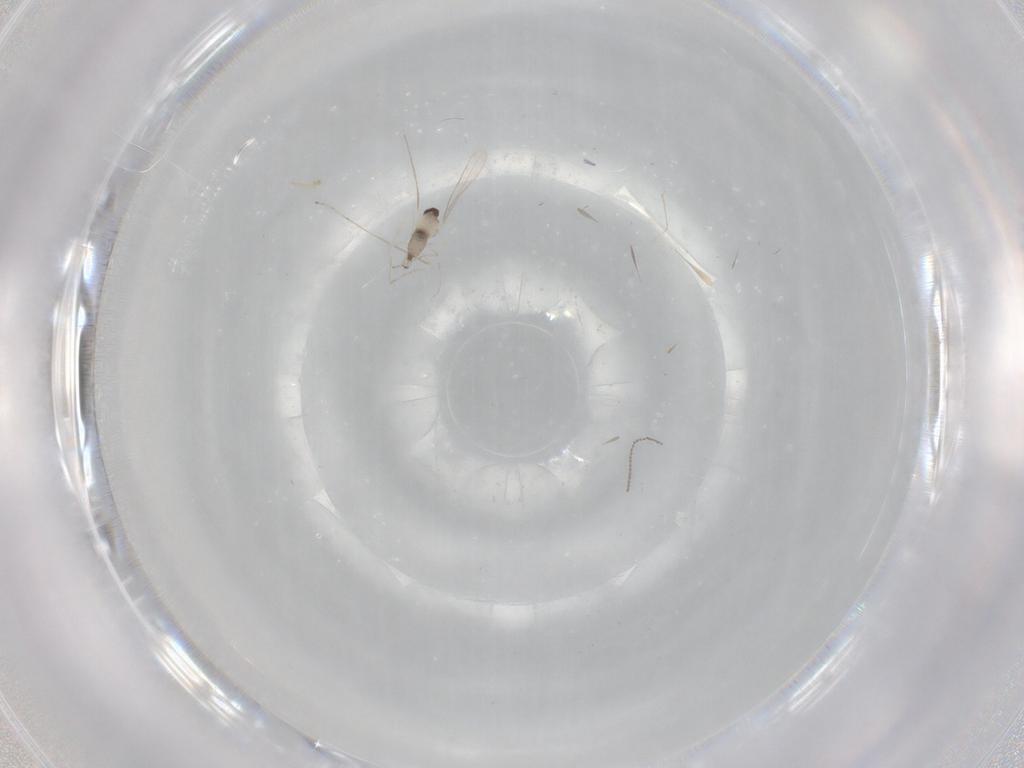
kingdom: Animalia
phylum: Arthropoda
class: Insecta
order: Diptera
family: Cecidomyiidae
